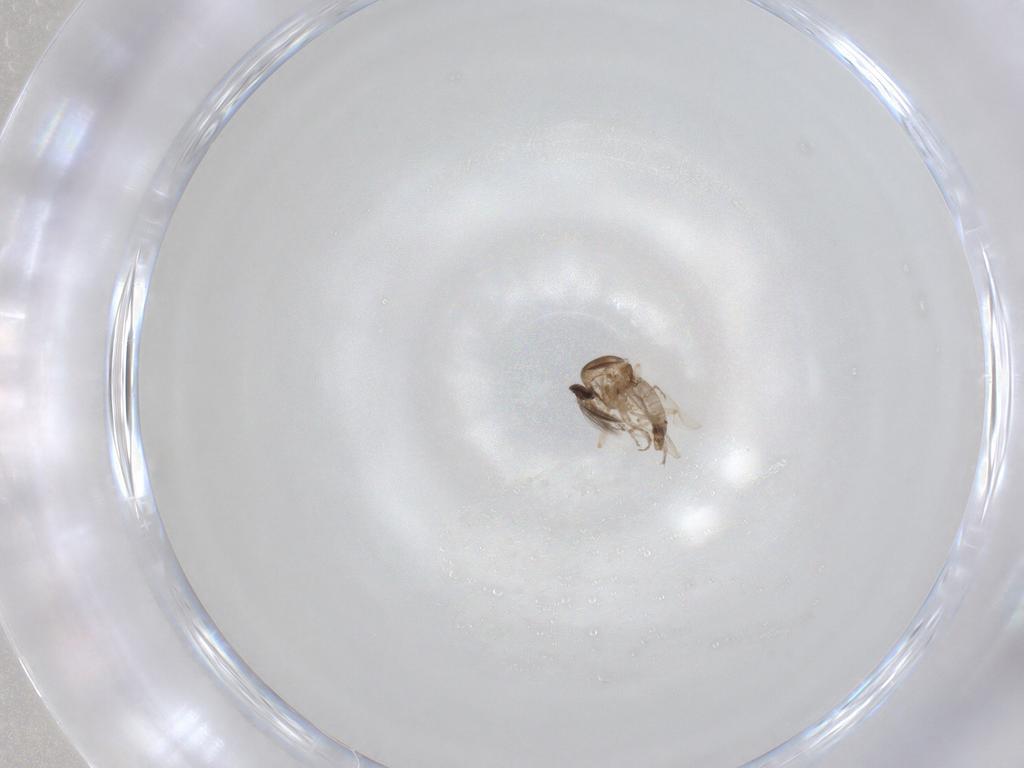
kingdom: Animalia
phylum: Arthropoda
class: Insecta
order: Diptera
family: Ceratopogonidae
